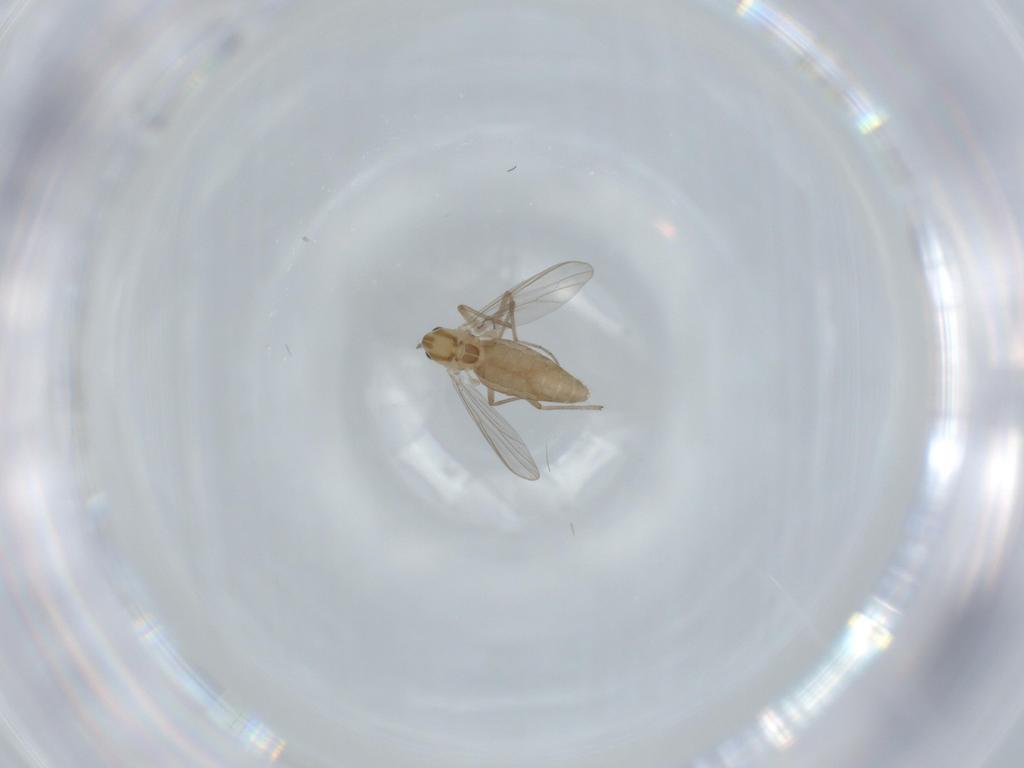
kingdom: Animalia
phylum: Arthropoda
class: Insecta
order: Diptera
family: Chironomidae
